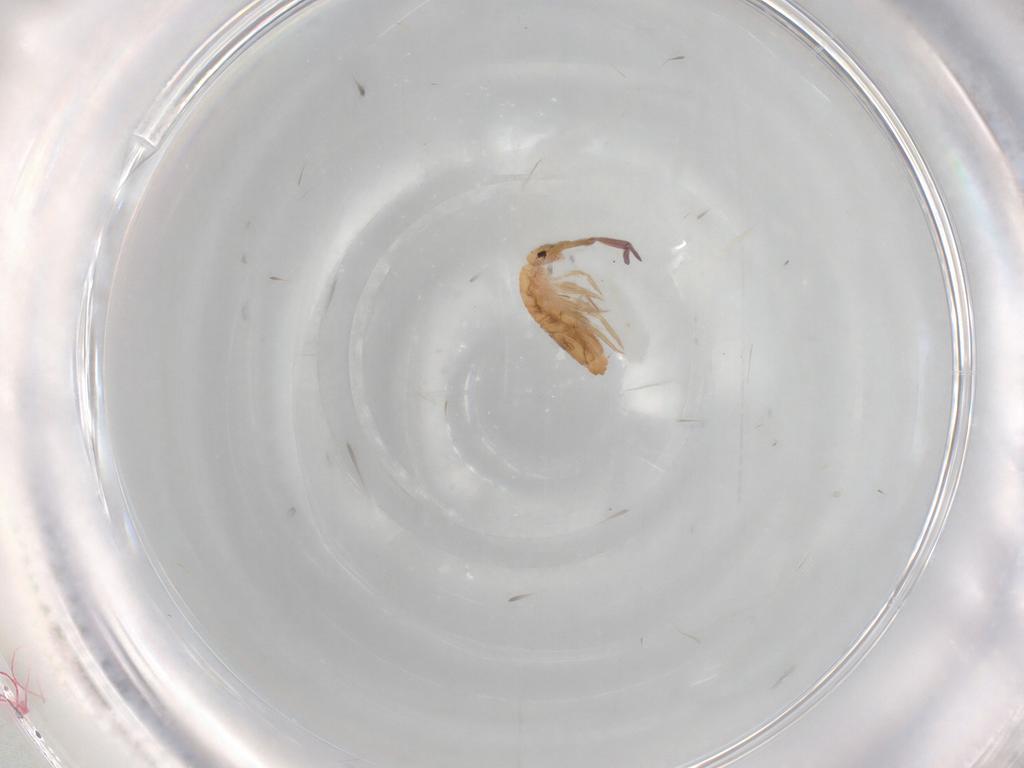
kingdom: Animalia
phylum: Arthropoda
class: Collembola
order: Entomobryomorpha
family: Entomobryidae
